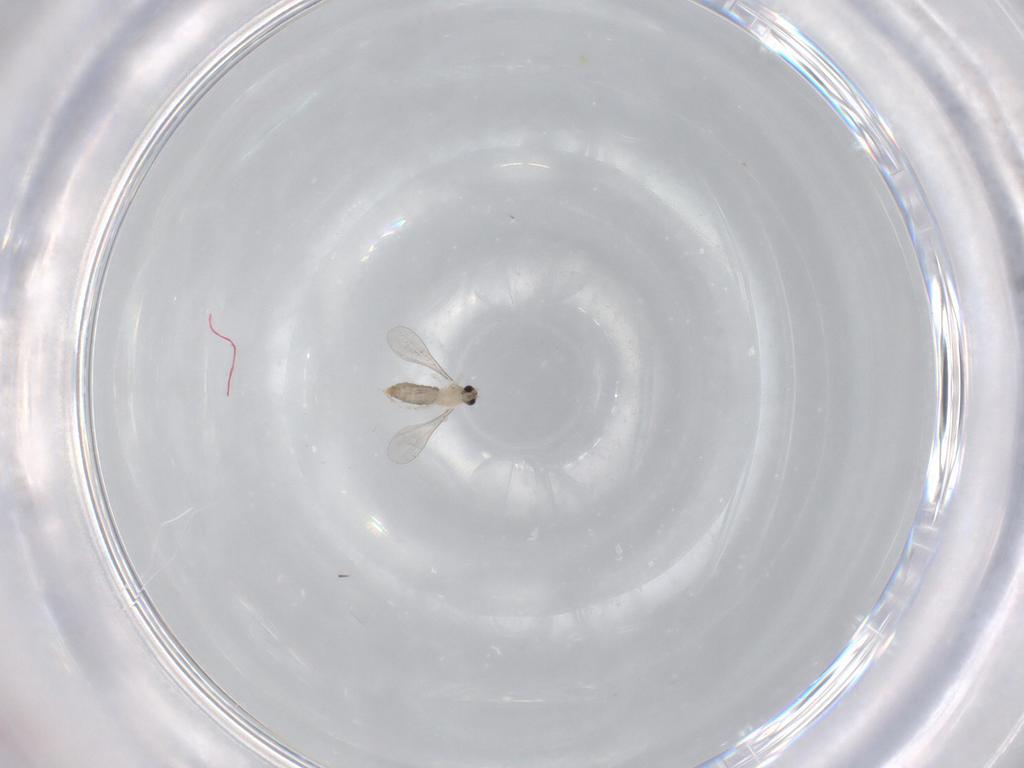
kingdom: Animalia
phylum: Arthropoda
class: Insecta
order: Diptera
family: Cecidomyiidae
